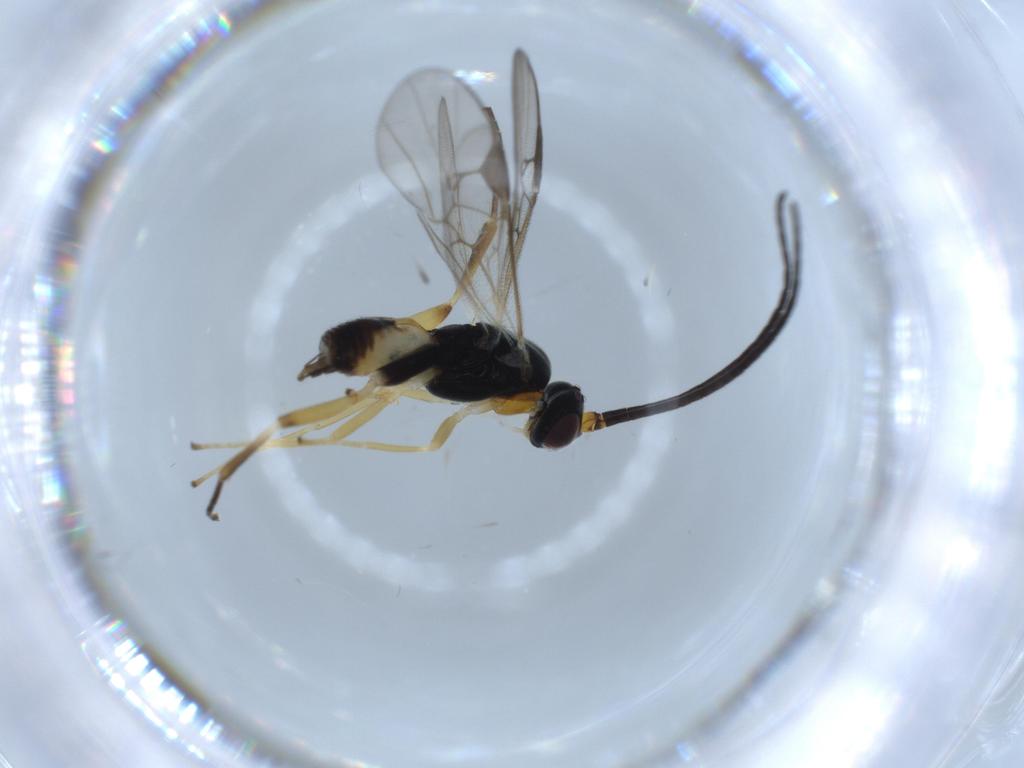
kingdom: Animalia
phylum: Arthropoda
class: Insecta
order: Hymenoptera
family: Braconidae
